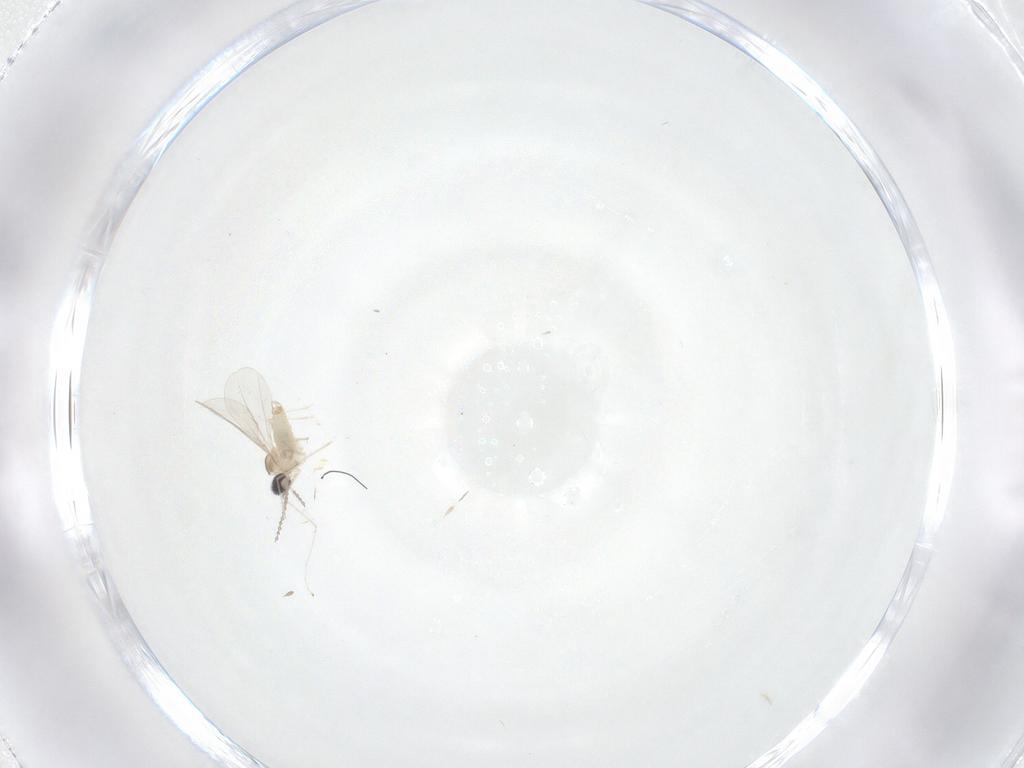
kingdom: Animalia
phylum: Arthropoda
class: Insecta
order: Diptera
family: Cecidomyiidae
